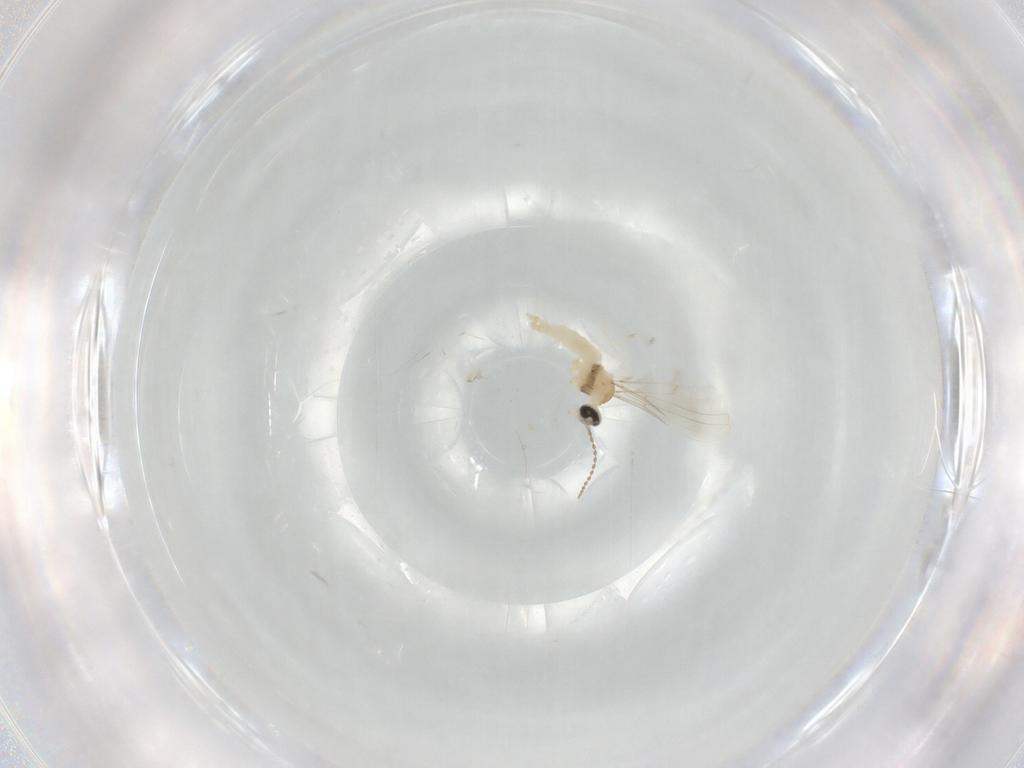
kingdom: Animalia
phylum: Arthropoda
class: Insecta
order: Diptera
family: Cecidomyiidae
